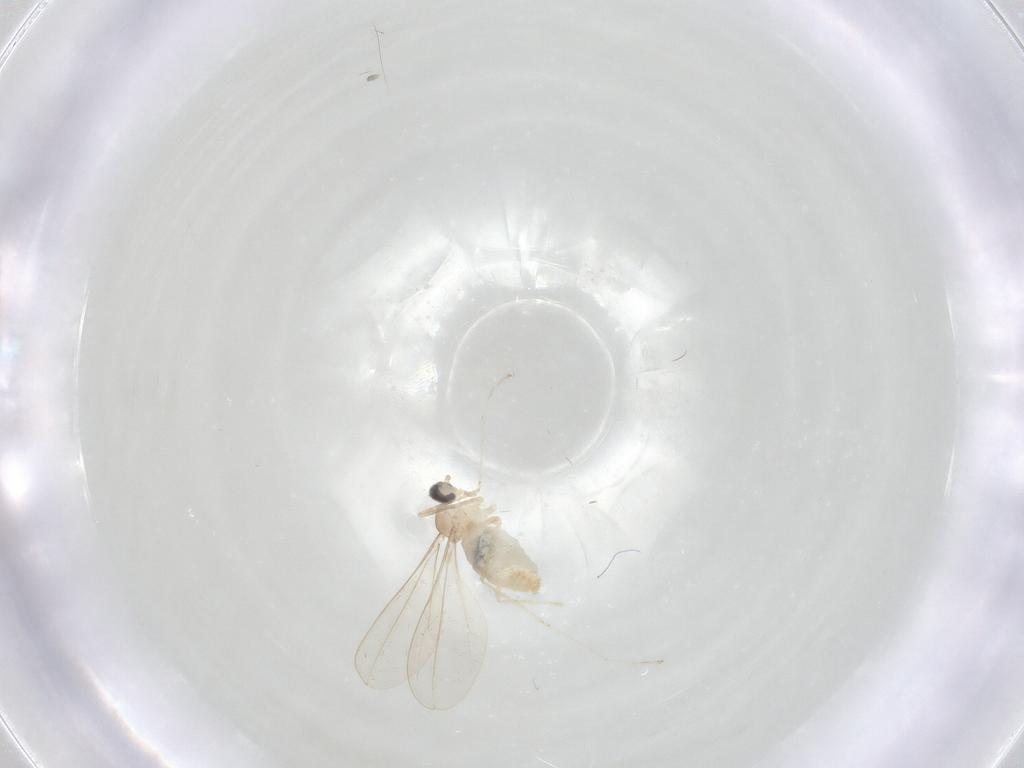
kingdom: Animalia
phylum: Arthropoda
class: Insecta
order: Diptera
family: Cecidomyiidae
